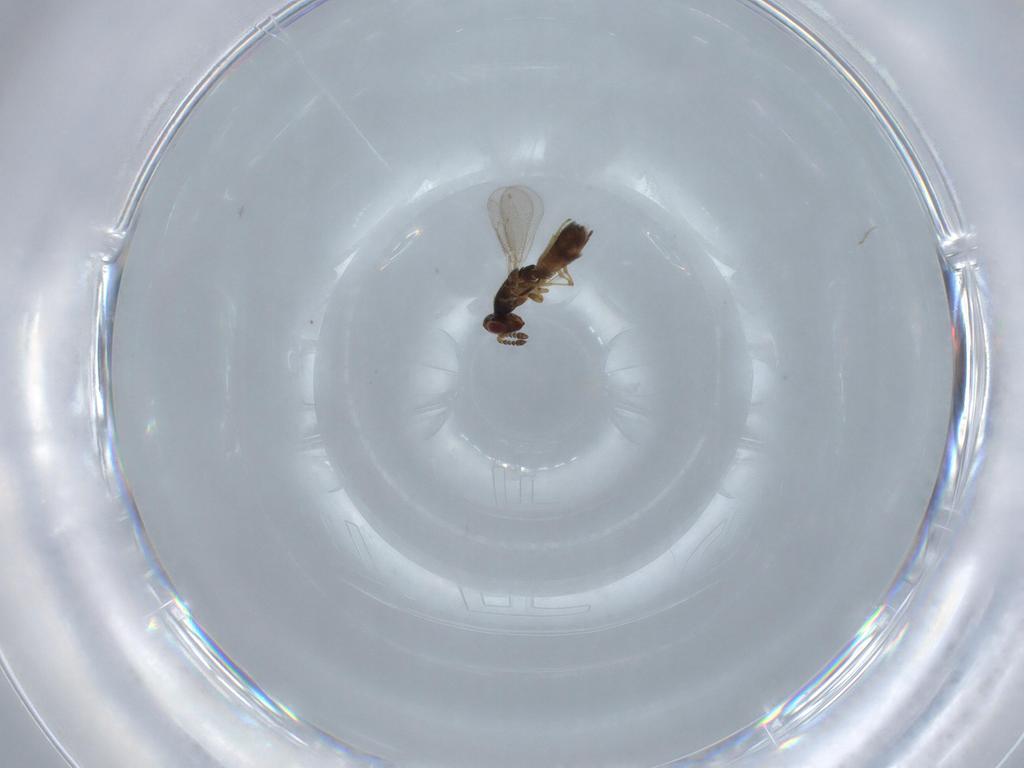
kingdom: Animalia
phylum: Arthropoda
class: Insecta
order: Hymenoptera
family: Eulophidae
